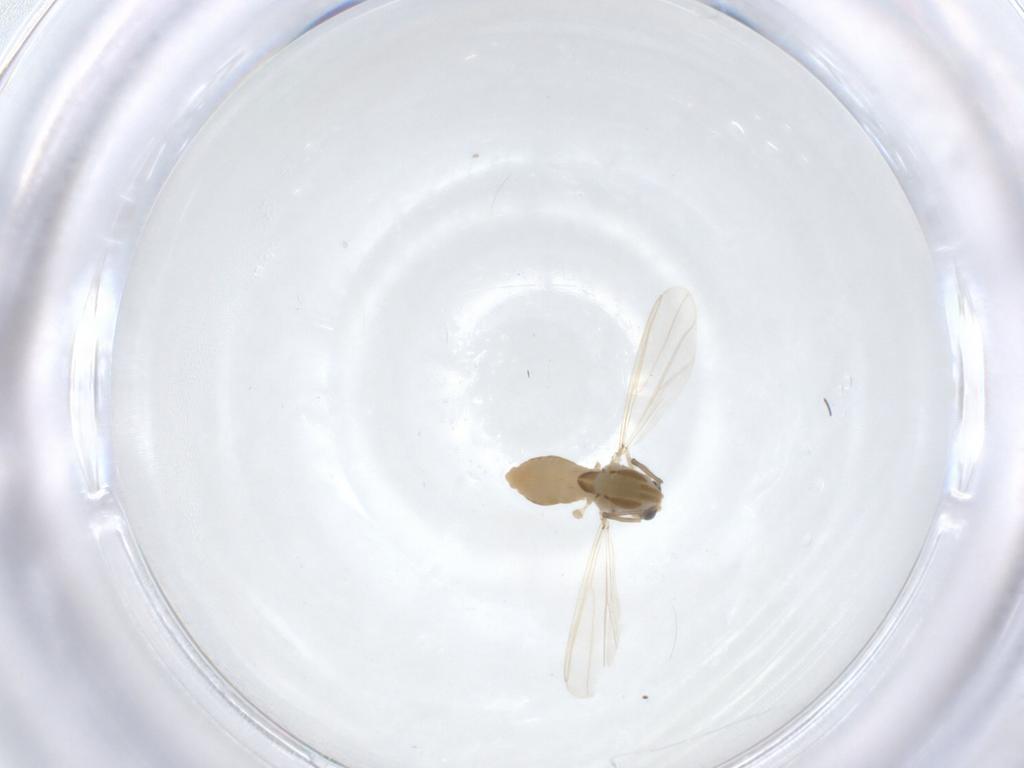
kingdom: Animalia
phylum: Arthropoda
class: Insecta
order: Diptera
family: Chironomidae
